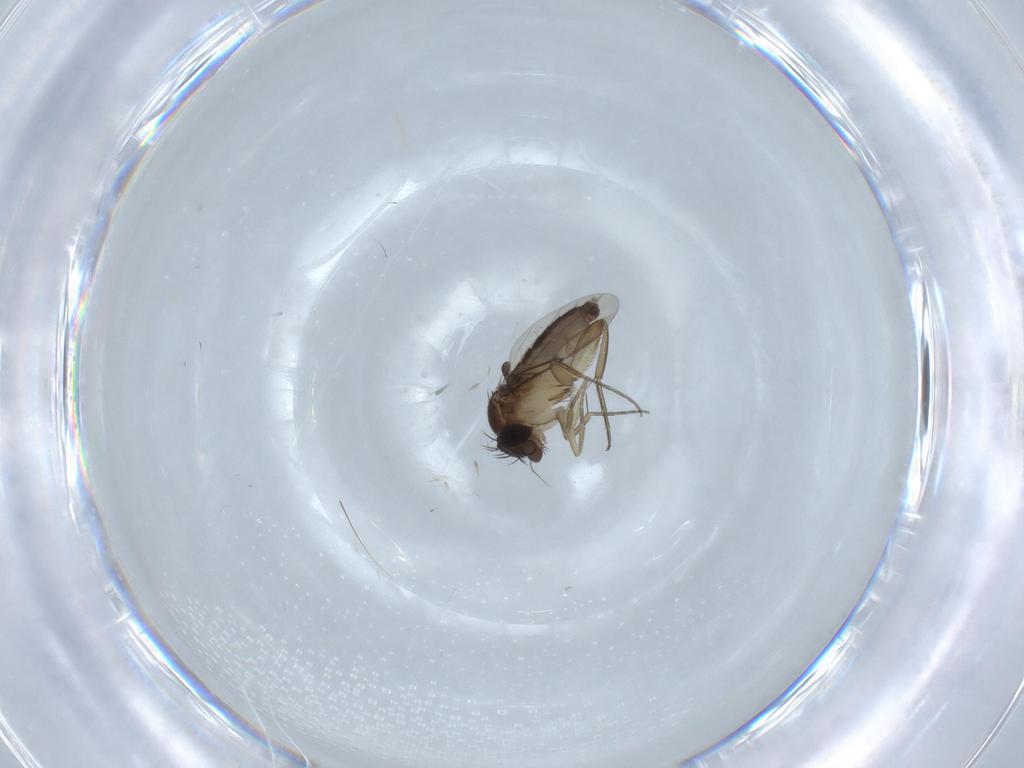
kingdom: Animalia
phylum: Arthropoda
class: Insecta
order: Diptera
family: Phoridae
